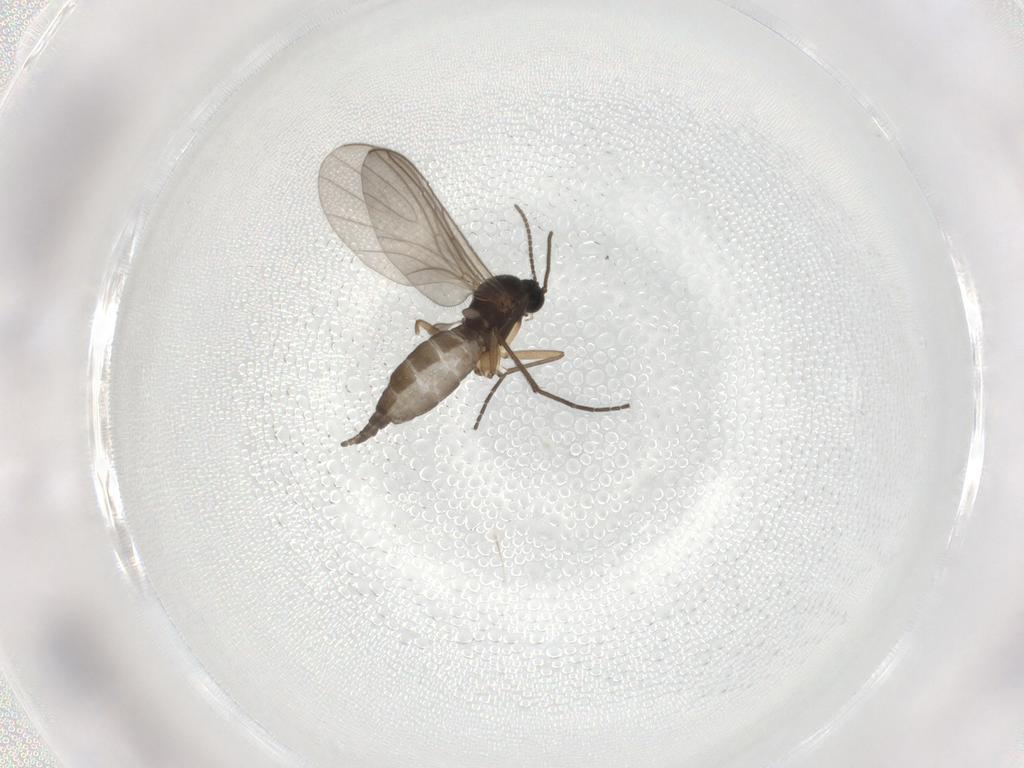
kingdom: Animalia
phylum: Arthropoda
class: Insecta
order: Diptera
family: Sciaridae
